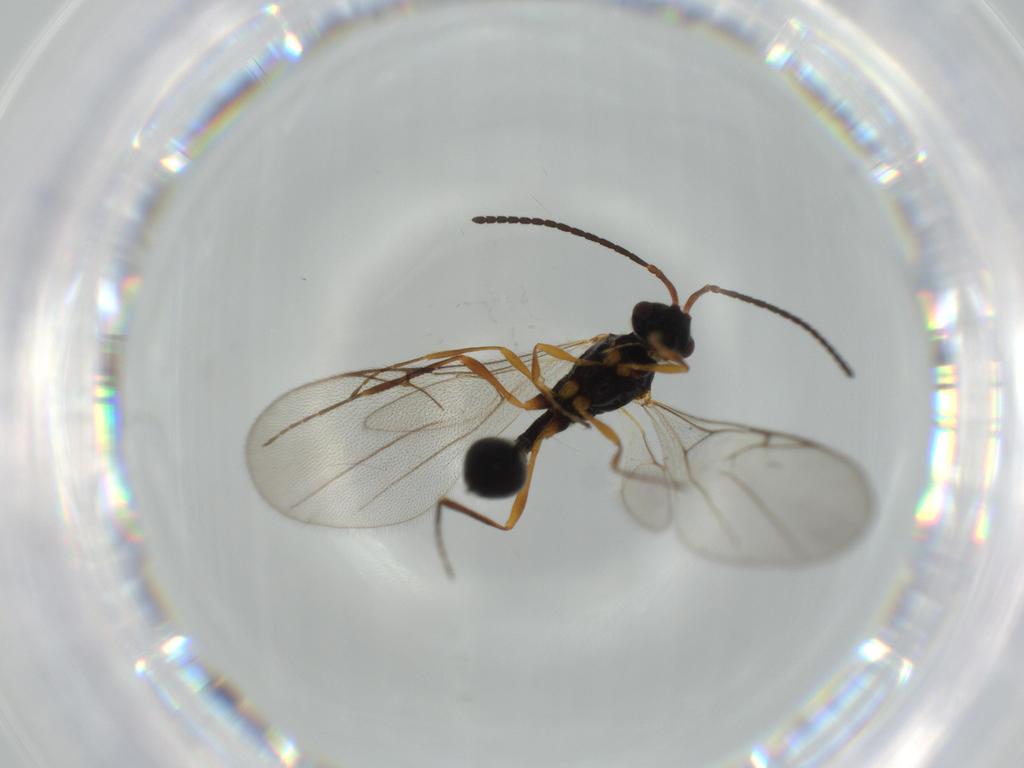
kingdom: Animalia
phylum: Arthropoda
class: Insecta
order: Hymenoptera
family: Diapriidae
